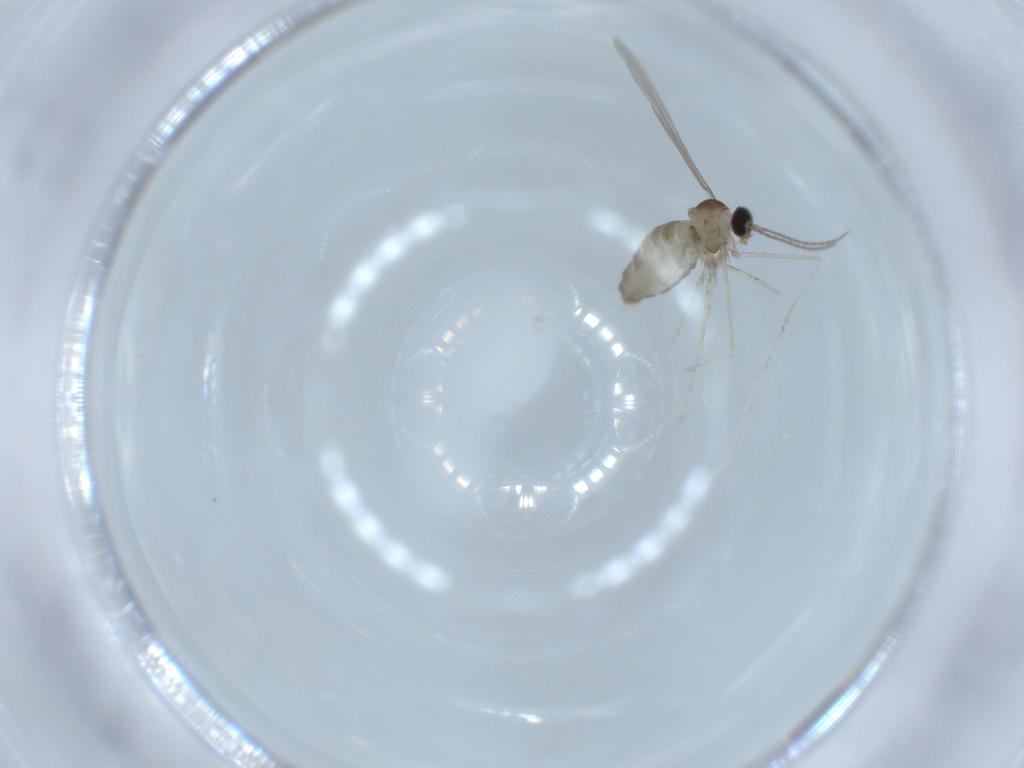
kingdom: Animalia
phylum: Arthropoda
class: Insecta
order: Diptera
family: Cecidomyiidae
